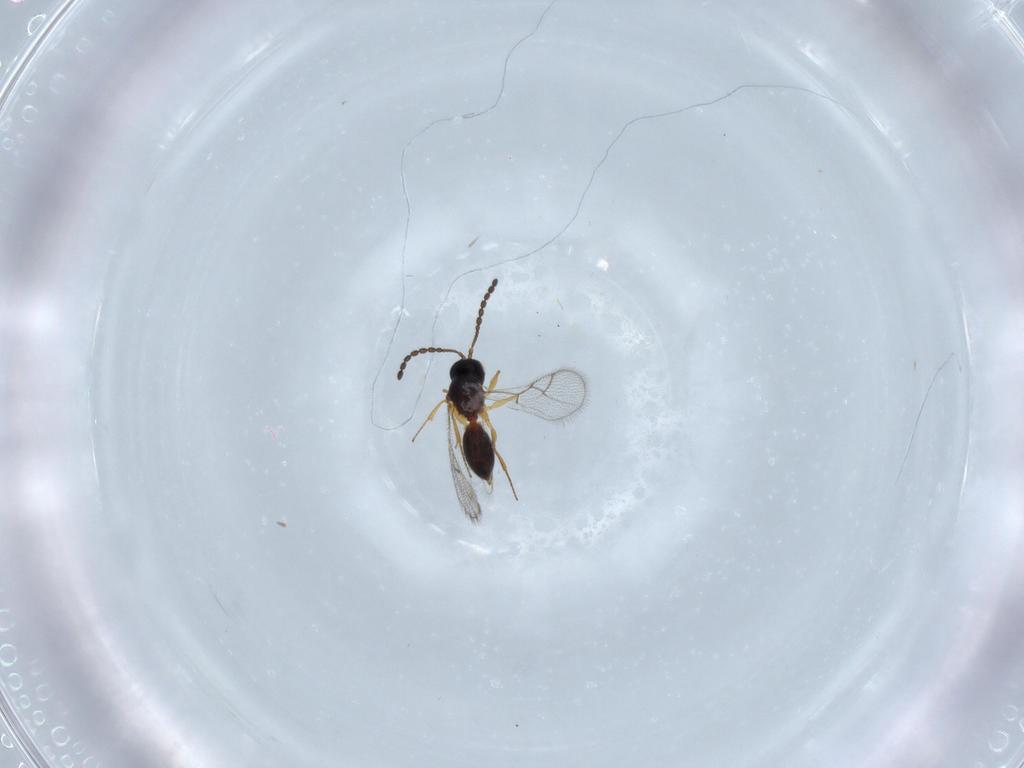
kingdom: Animalia
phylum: Arthropoda
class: Insecta
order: Hymenoptera
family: Figitidae
